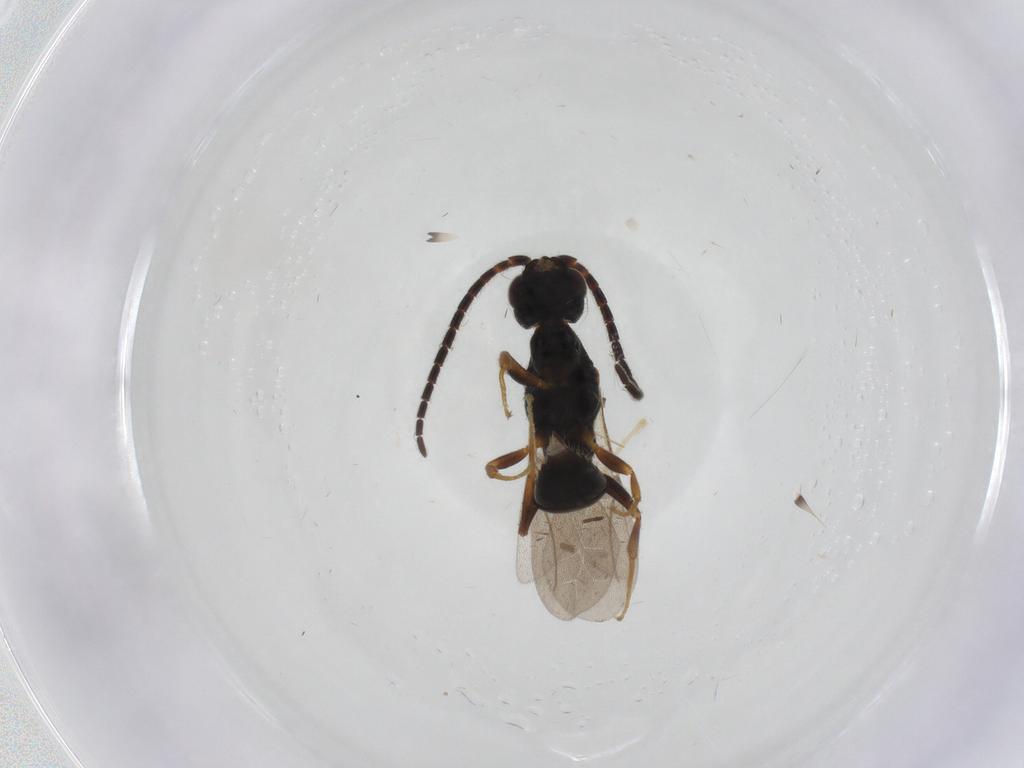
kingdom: Animalia
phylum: Arthropoda
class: Insecta
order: Hymenoptera
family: Bethylidae
